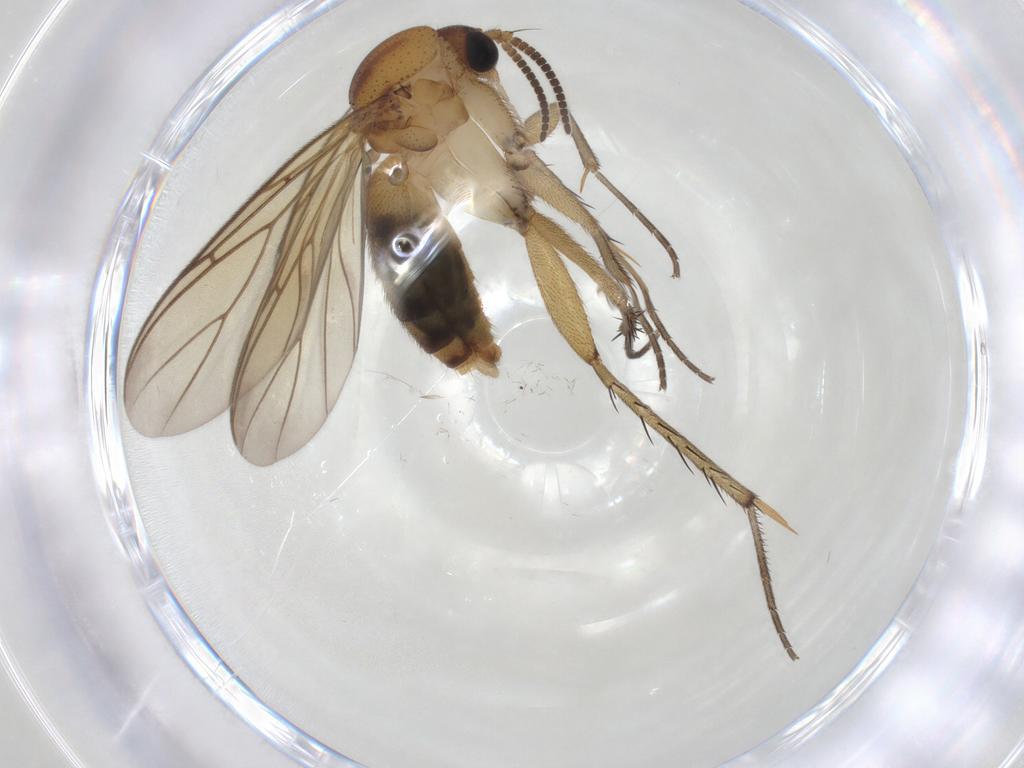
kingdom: Animalia
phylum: Arthropoda
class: Insecta
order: Diptera
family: Mycetophilidae
